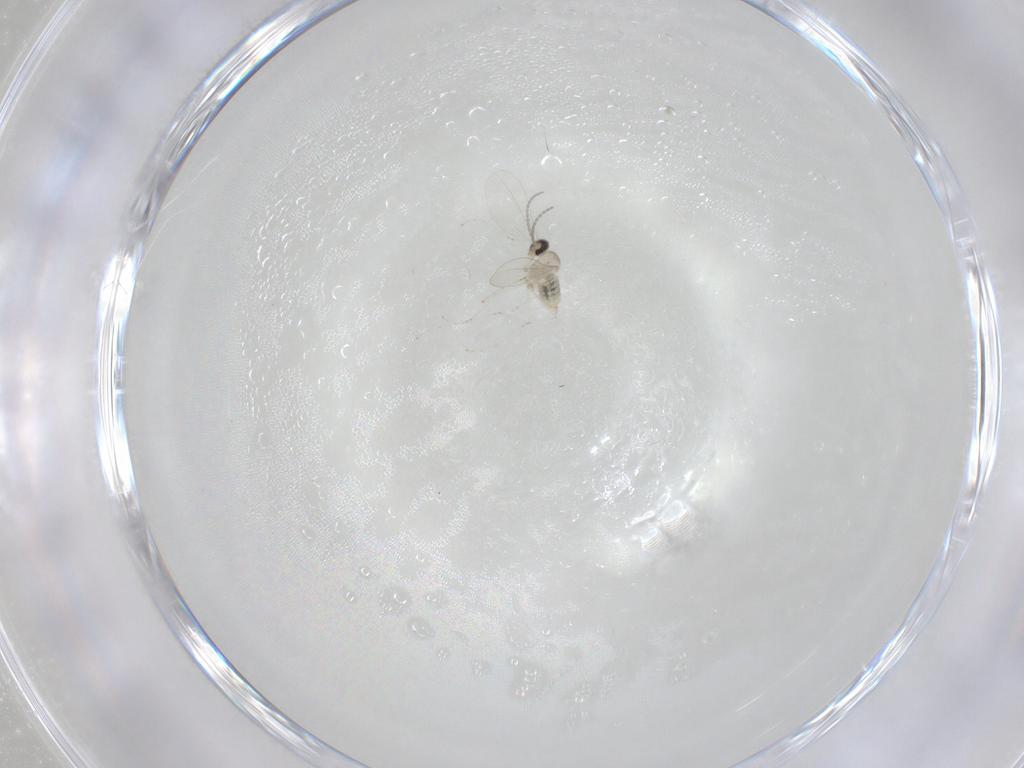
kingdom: Animalia
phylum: Arthropoda
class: Insecta
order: Diptera
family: Cecidomyiidae
